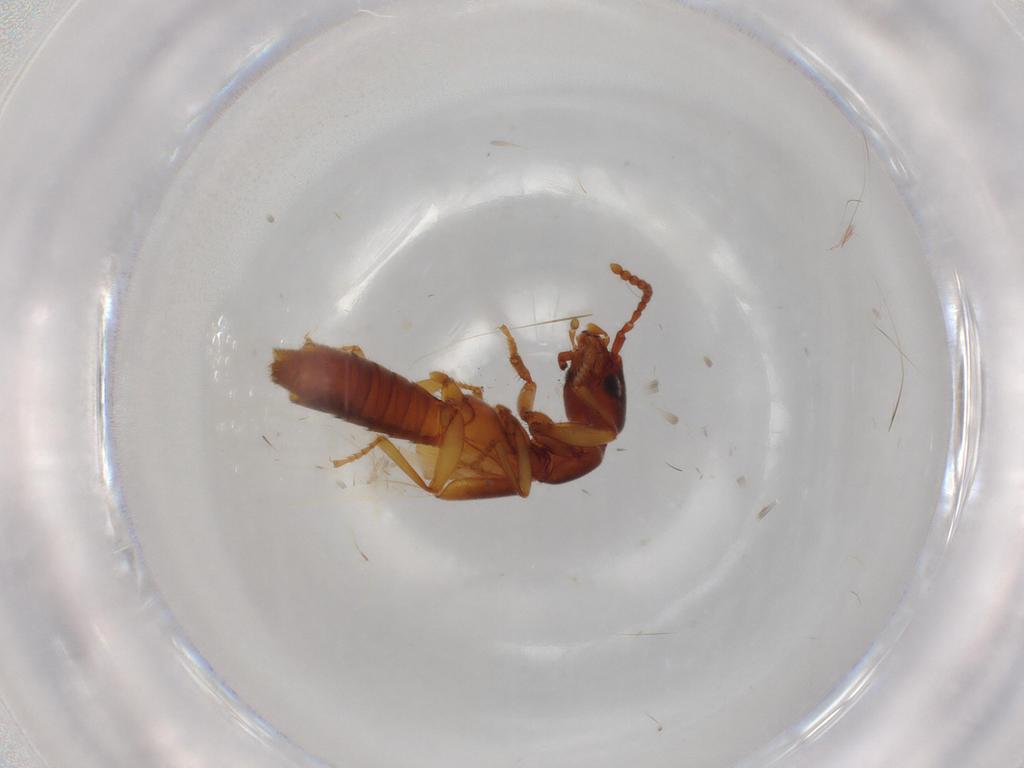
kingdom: Animalia
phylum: Arthropoda
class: Insecta
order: Coleoptera
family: Staphylinidae
